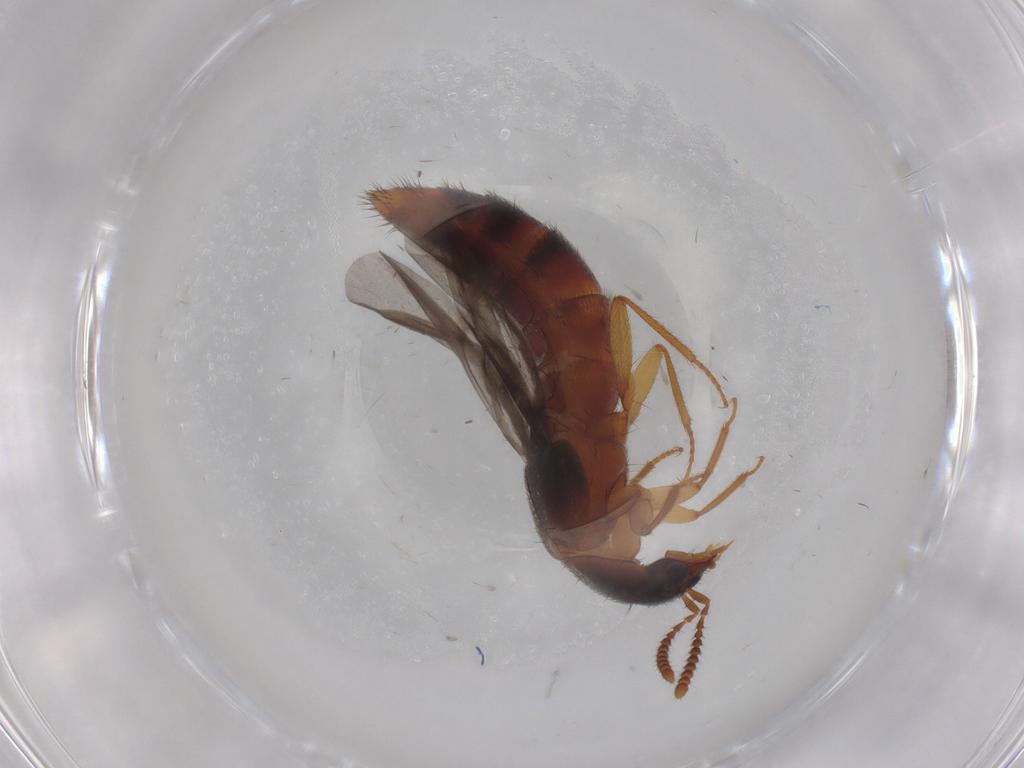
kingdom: Animalia
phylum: Arthropoda
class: Insecta
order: Coleoptera
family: Staphylinidae
